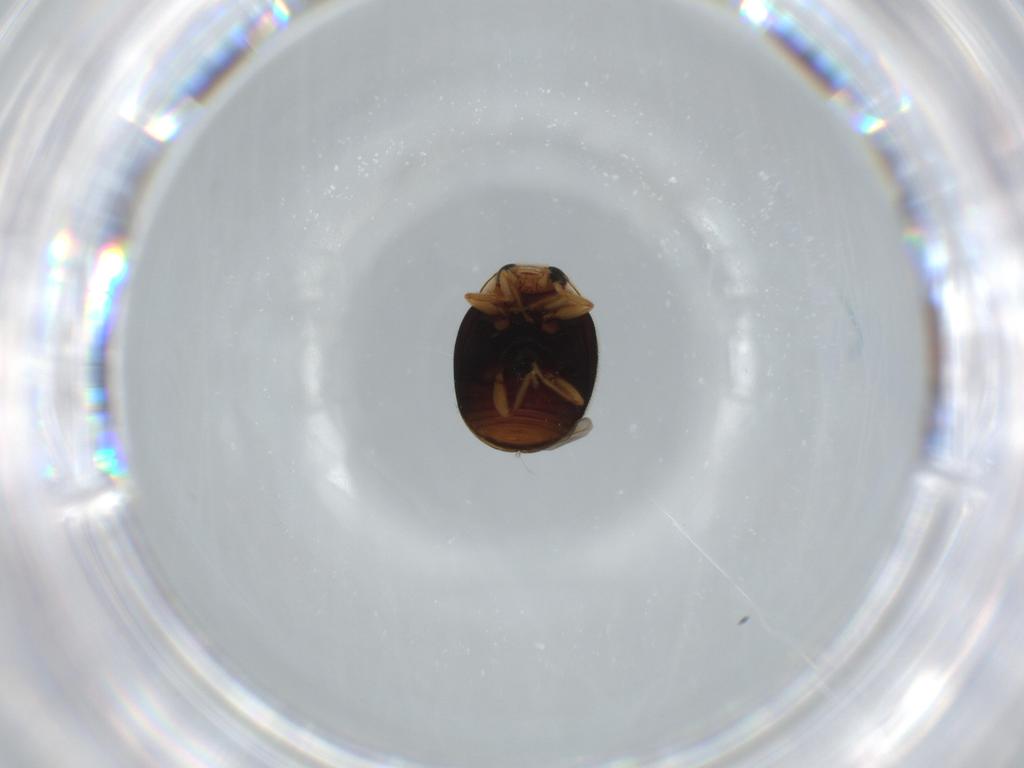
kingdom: Animalia
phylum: Arthropoda
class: Insecta
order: Coleoptera
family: Coccinellidae
